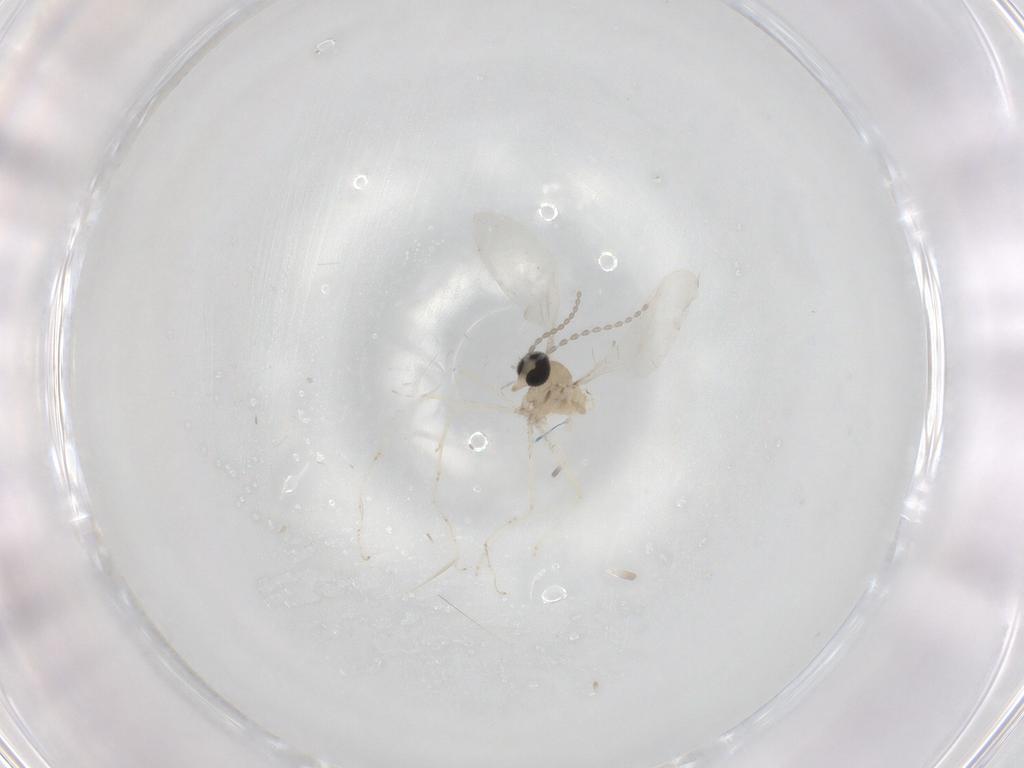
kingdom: Animalia
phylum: Arthropoda
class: Insecta
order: Diptera
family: Cecidomyiidae
